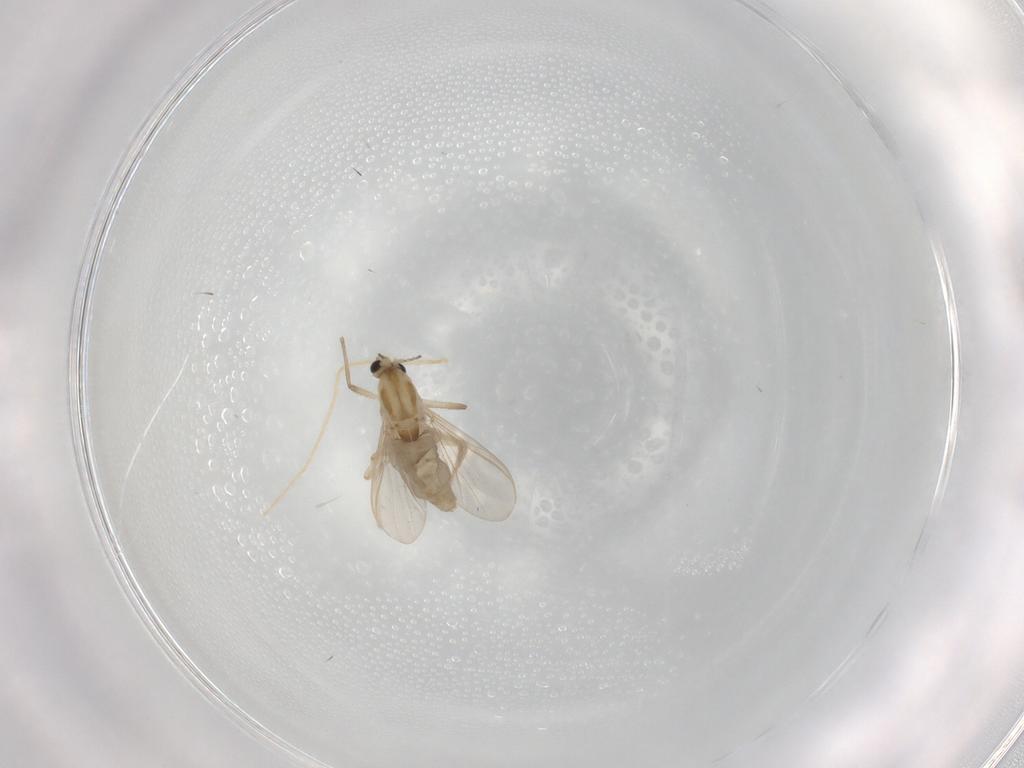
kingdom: Animalia
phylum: Arthropoda
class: Insecta
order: Diptera
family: Chironomidae
